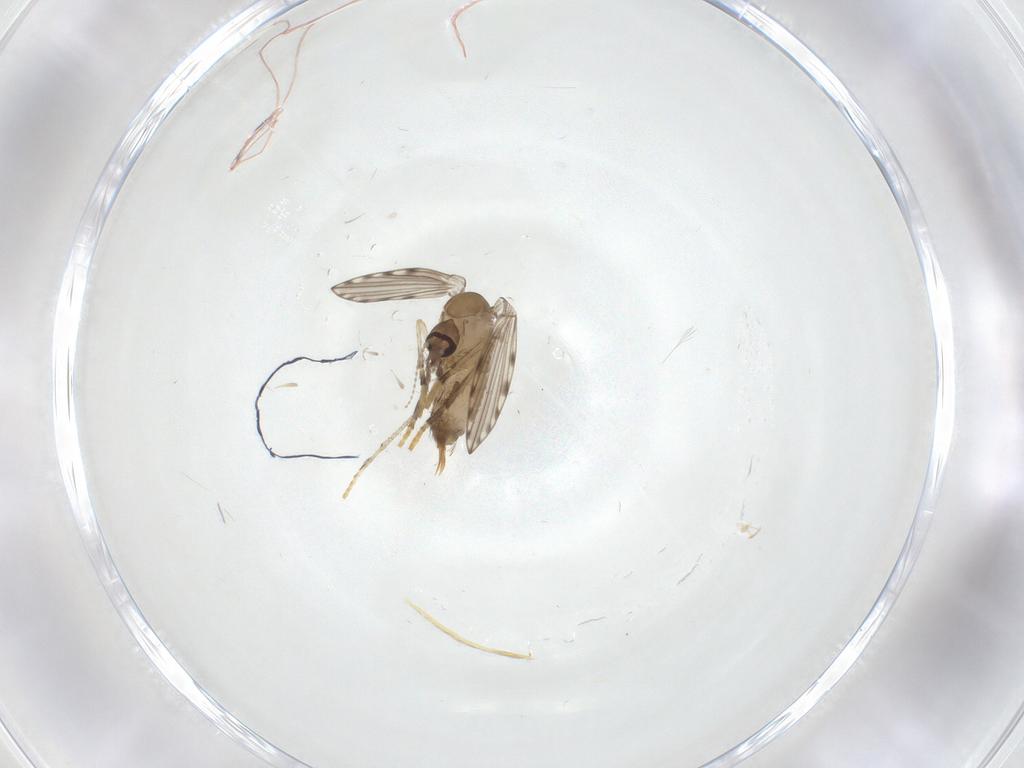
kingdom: Animalia
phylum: Arthropoda
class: Insecta
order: Diptera
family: Psychodidae
